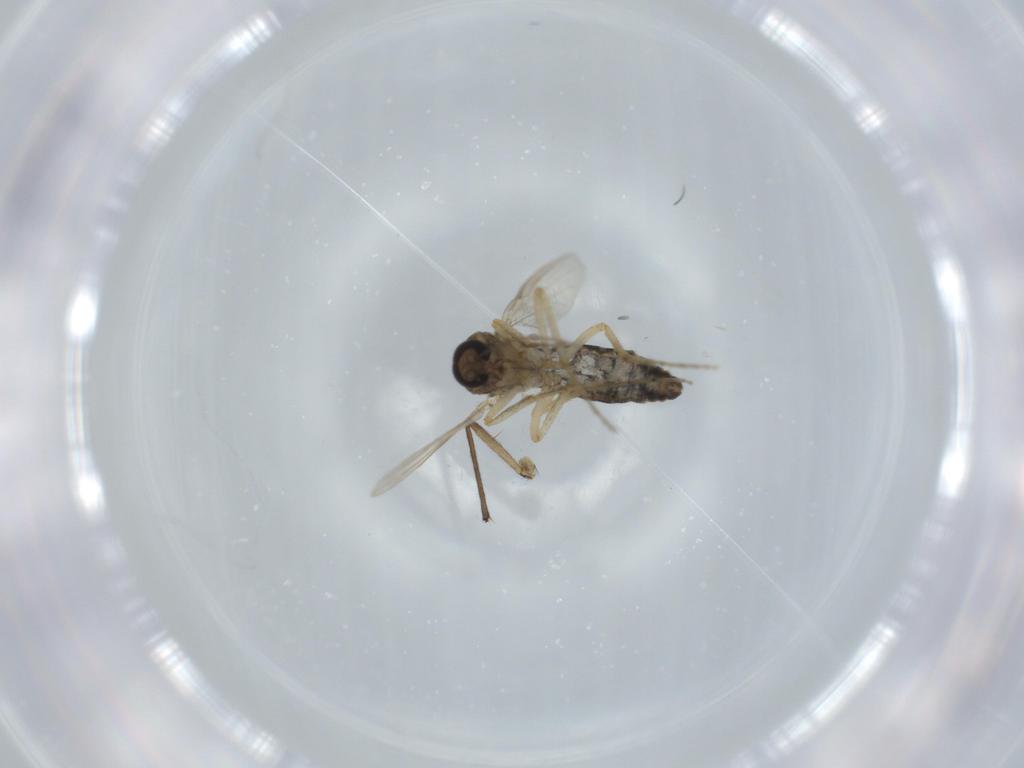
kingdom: Animalia
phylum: Arthropoda
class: Insecta
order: Diptera
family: Ceratopogonidae
